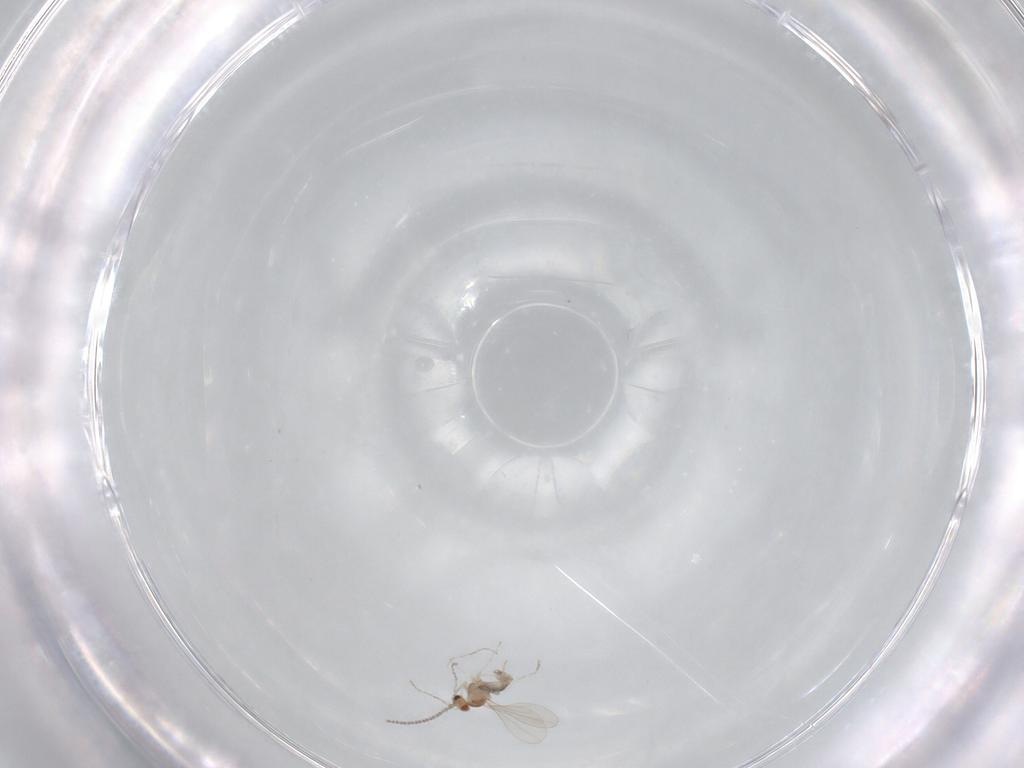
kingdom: Animalia
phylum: Arthropoda
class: Insecta
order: Diptera
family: Cecidomyiidae
